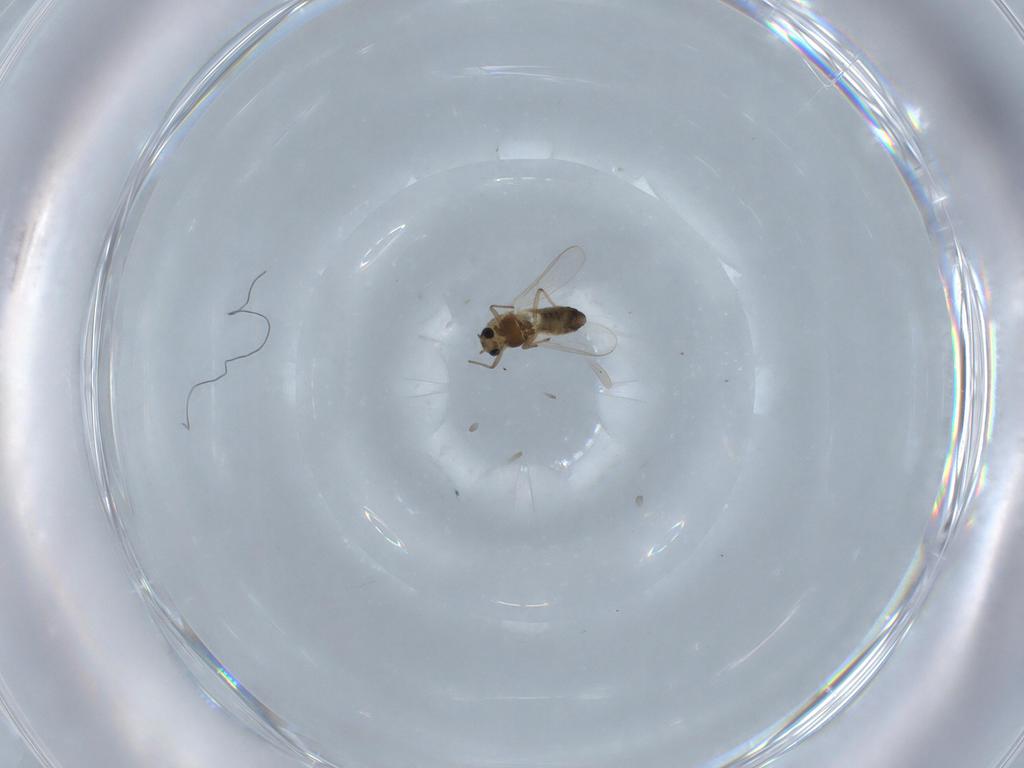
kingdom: Animalia
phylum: Arthropoda
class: Insecta
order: Diptera
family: Chironomidae
